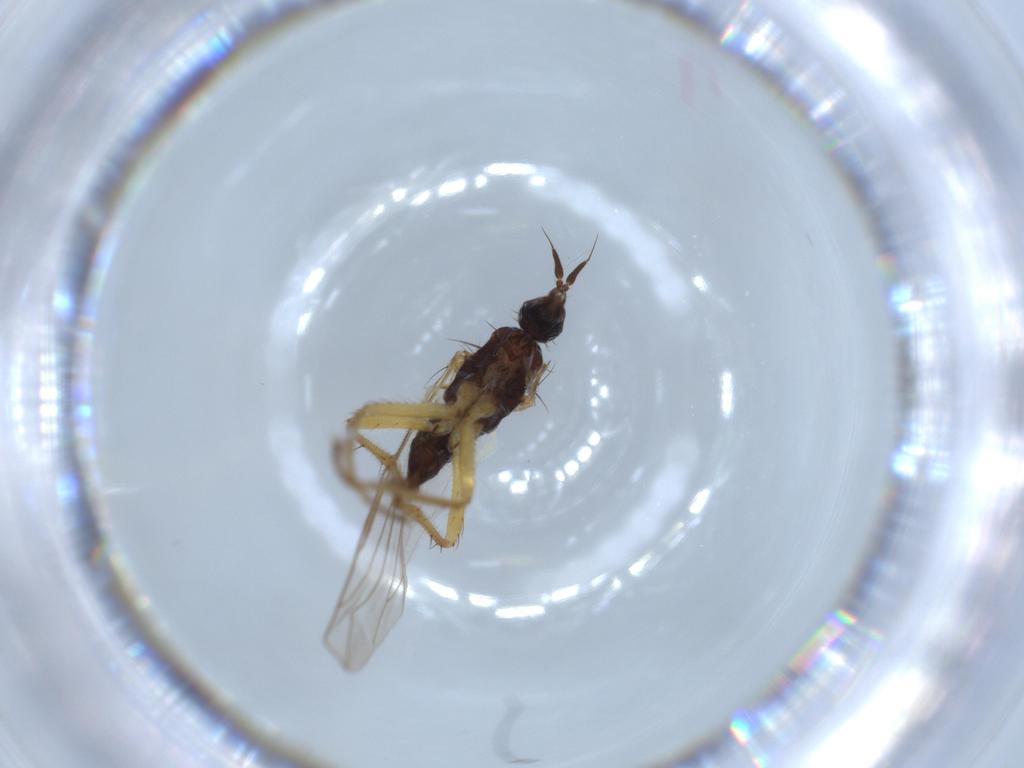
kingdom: Animalia
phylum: Arthropoda
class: Insecta
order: Diptera
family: Hybotidae
